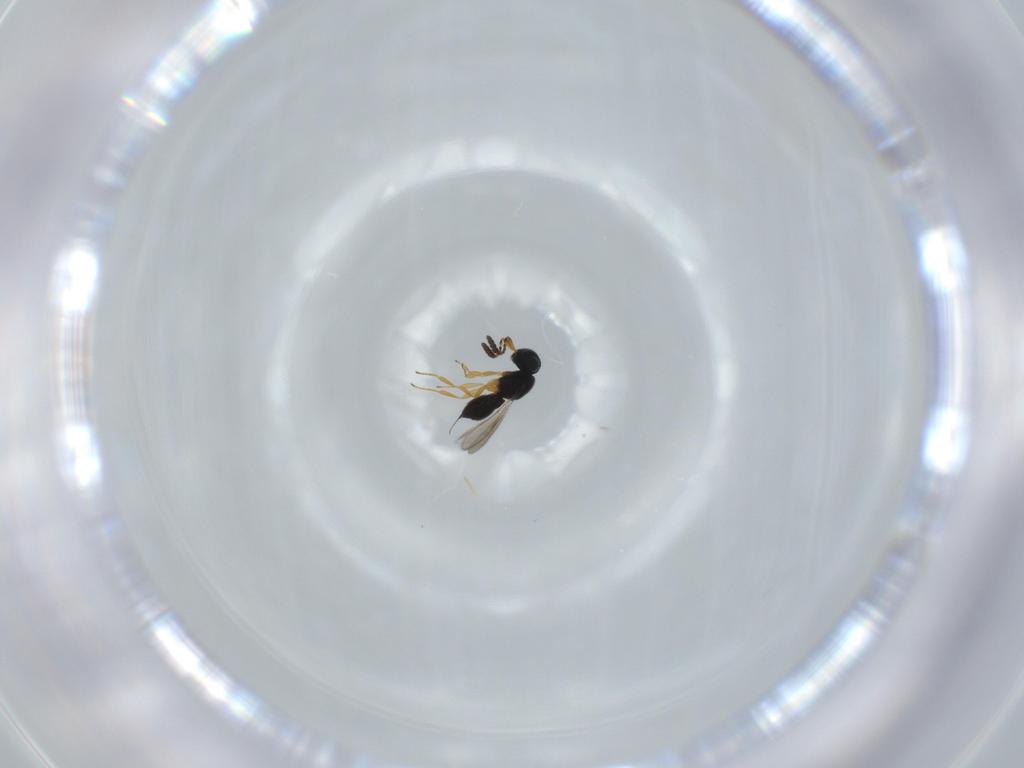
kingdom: Animalia
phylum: Arthropoda
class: Insecta
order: Hymenoptera
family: Scelionidae
